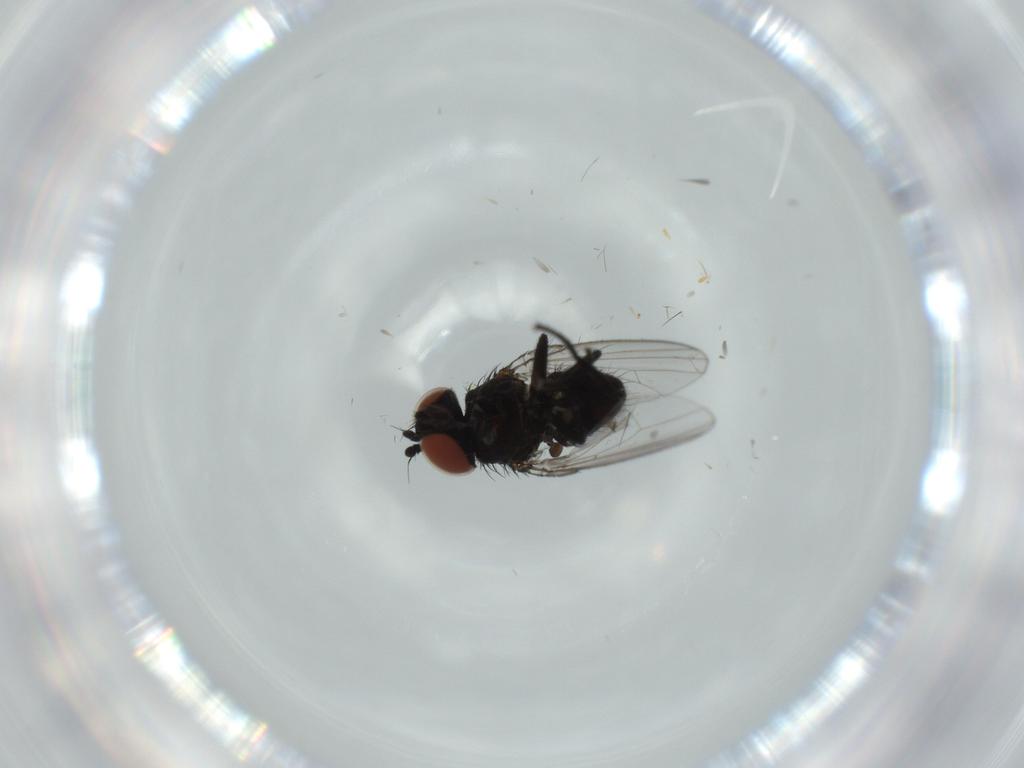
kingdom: Animalia
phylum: Arthropoda
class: Insecta
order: Diptera
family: Milichiidae
